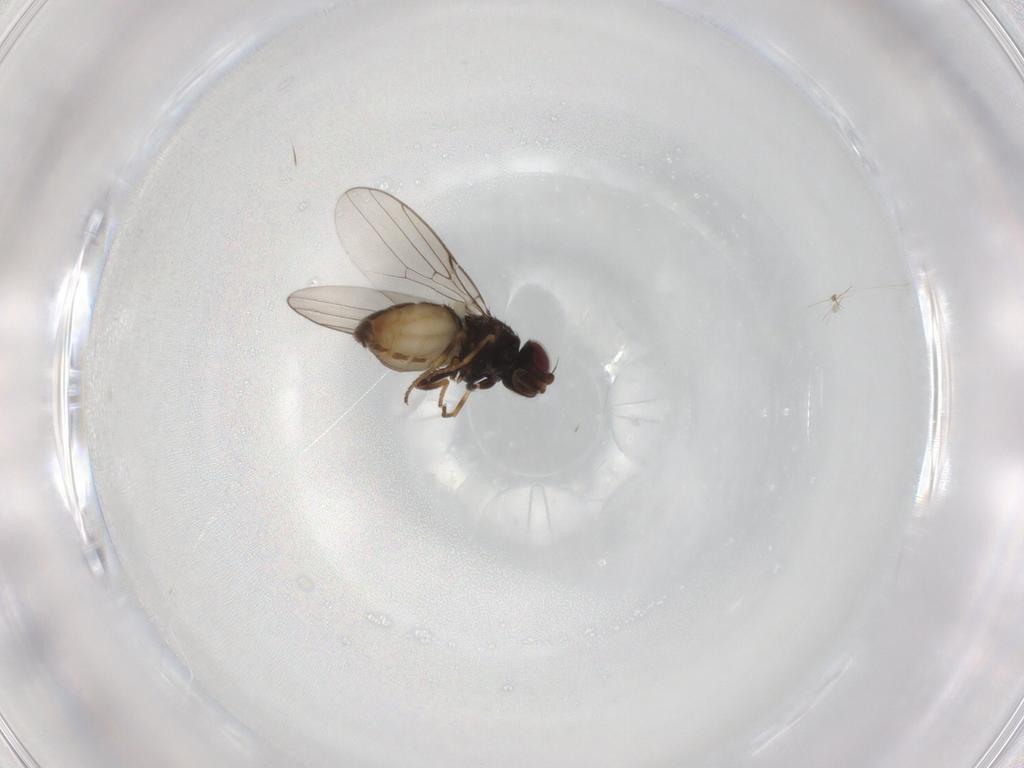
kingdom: Animalia
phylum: Arthropoda
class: Insecta
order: Diptera
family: Chloropidae
